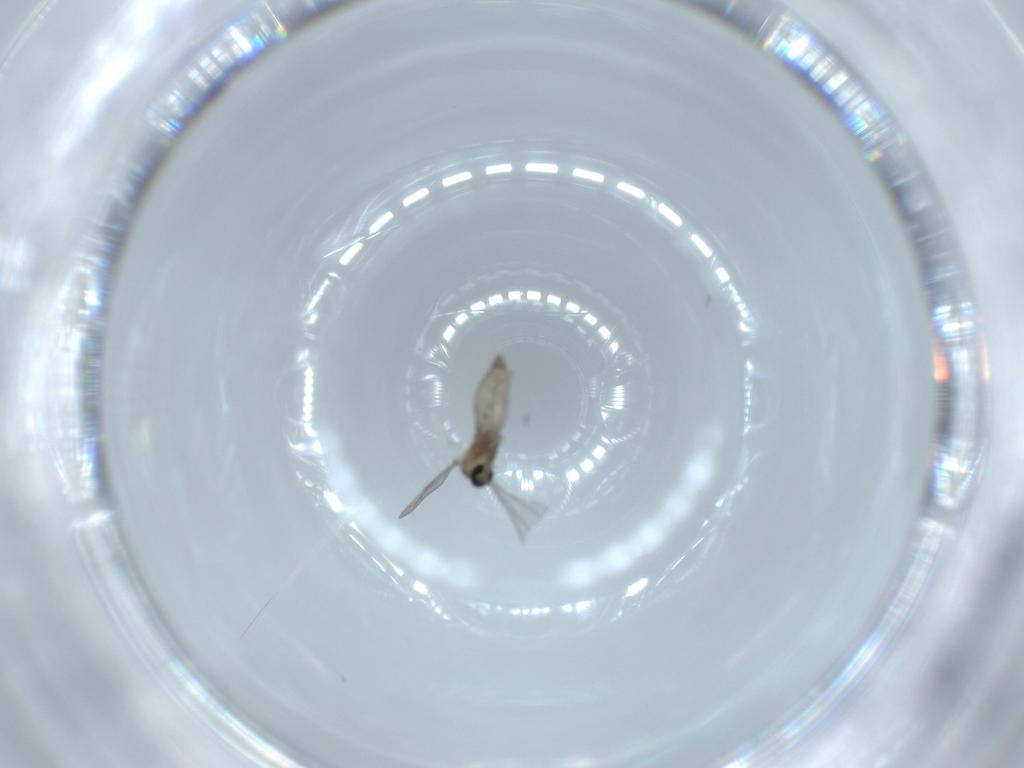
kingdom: Animalia
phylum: Arthropoda
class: Insecta
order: Diptera
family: Cecidomyiidae
